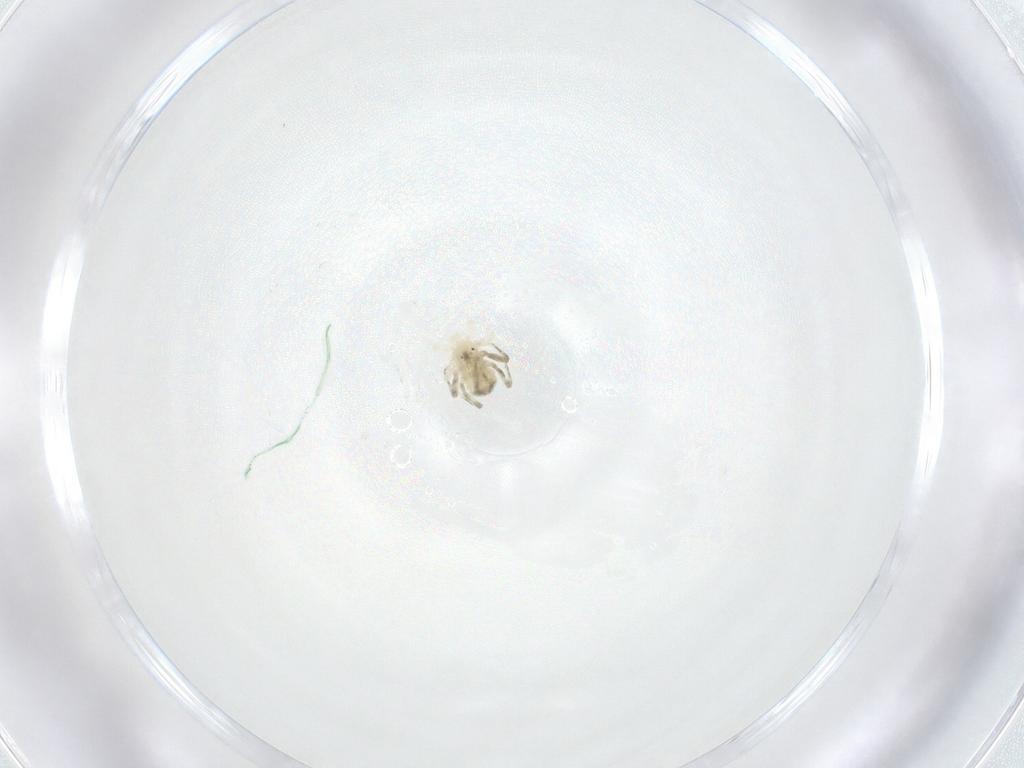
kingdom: Animalia
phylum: Arthropoda
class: Arachnida
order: Trombidiformes
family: Anystidae
